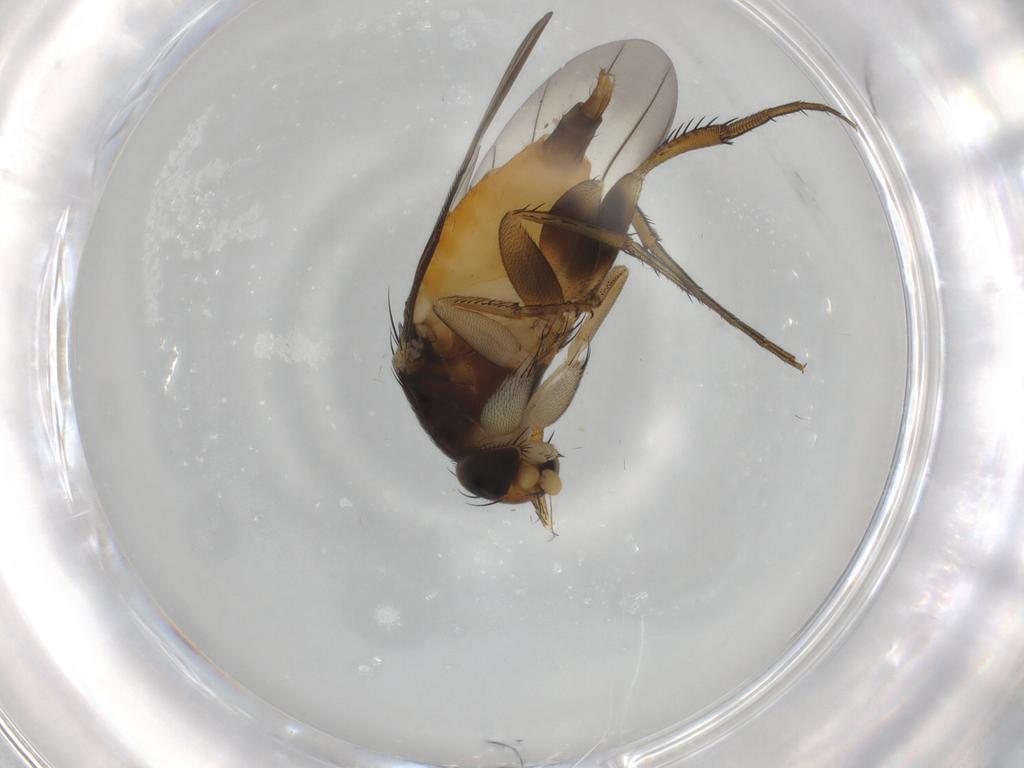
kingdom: Animalia
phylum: Arthropoda
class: Insecta
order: Diptera
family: Phoridae
